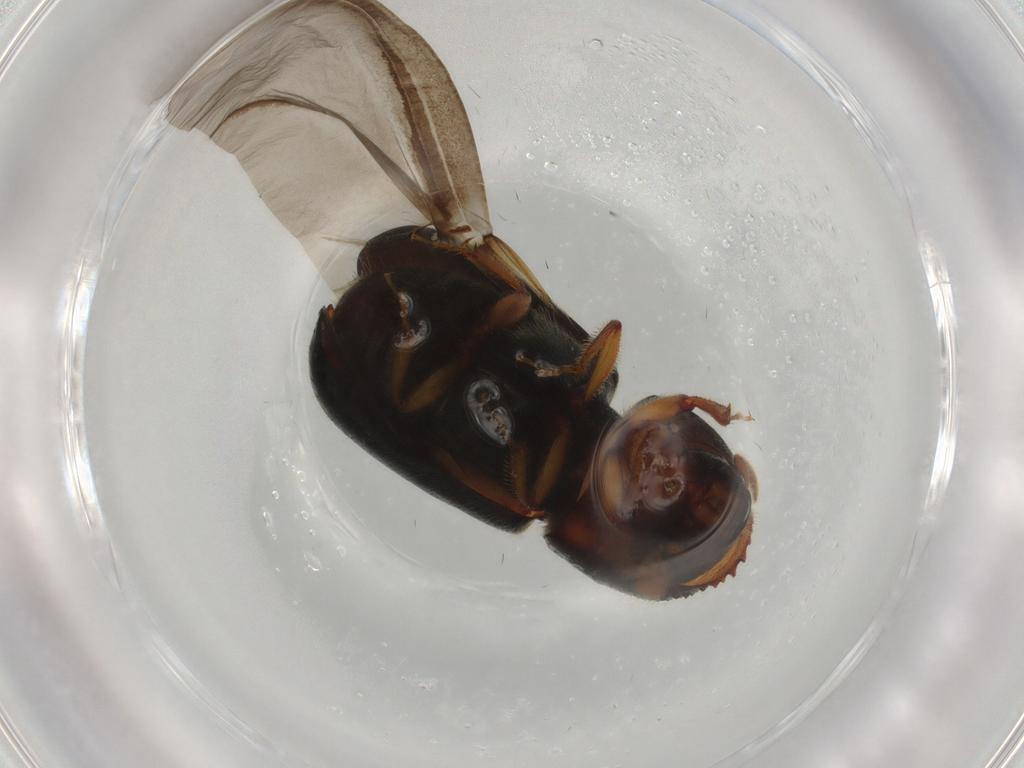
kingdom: Animalia
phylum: Arthropoda
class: Insecta
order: Coleoptera
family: Curculionidae
